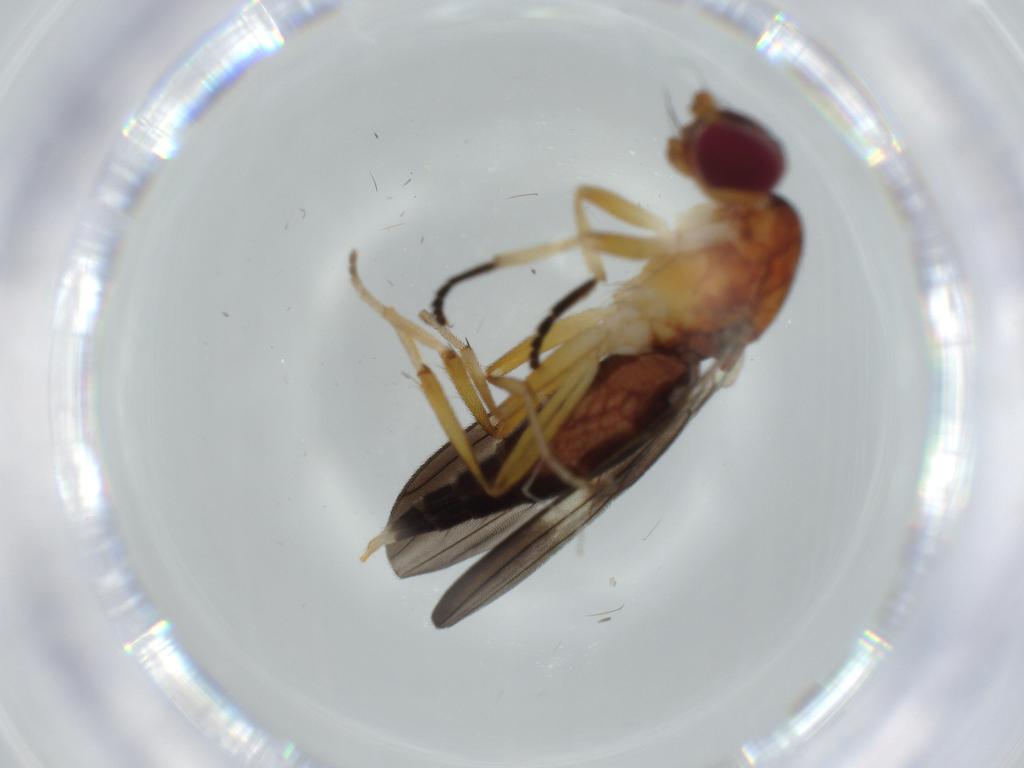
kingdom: Animalia
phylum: Arthropoda
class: Insecta
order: Diptera
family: Clusiidae
